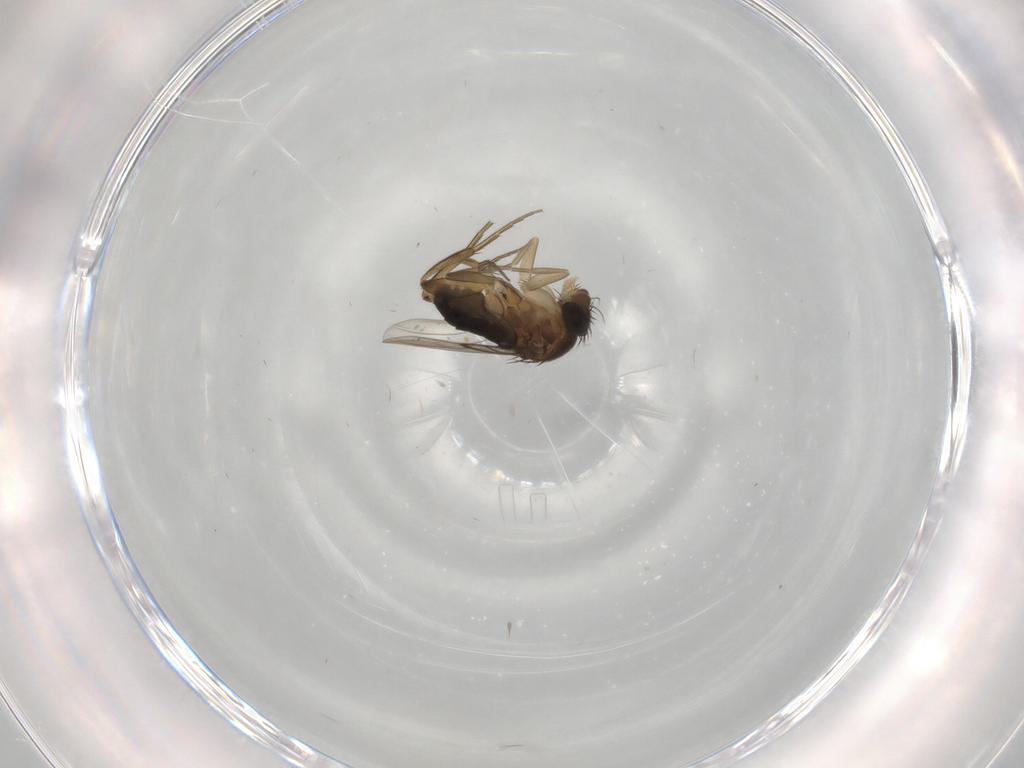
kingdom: Animalia
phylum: Arthropoda
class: Insecta
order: Diptera
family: Phoridae
